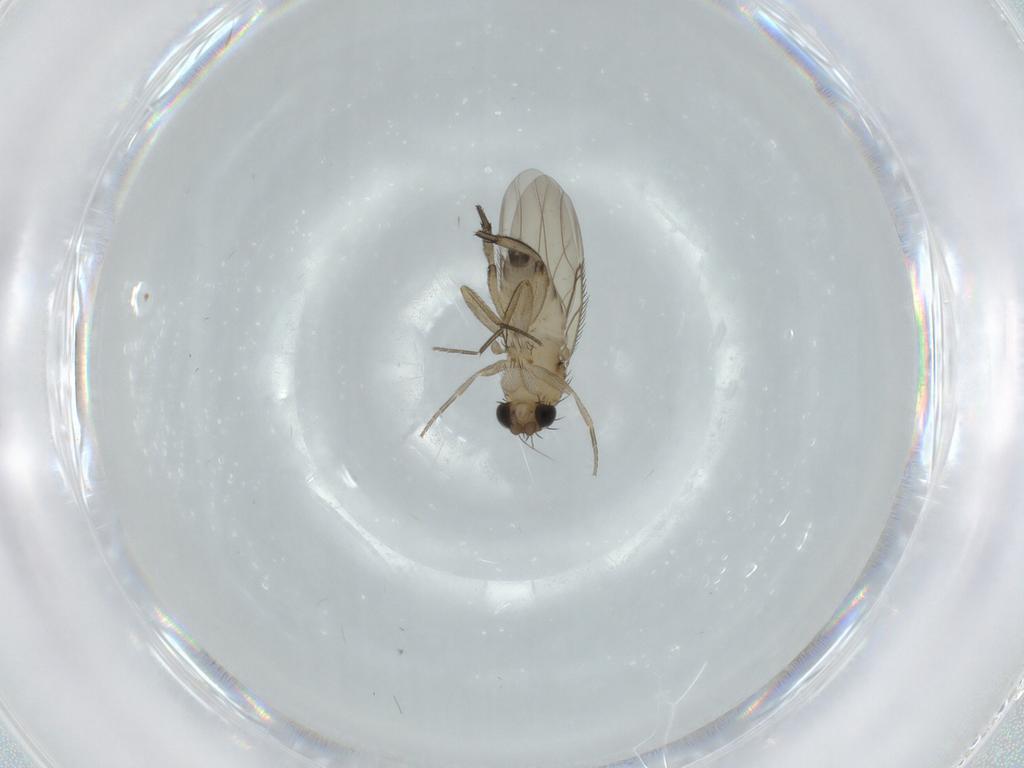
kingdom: Animalia
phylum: Arthropoda
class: Insecta
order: Diptera
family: Phoridae
